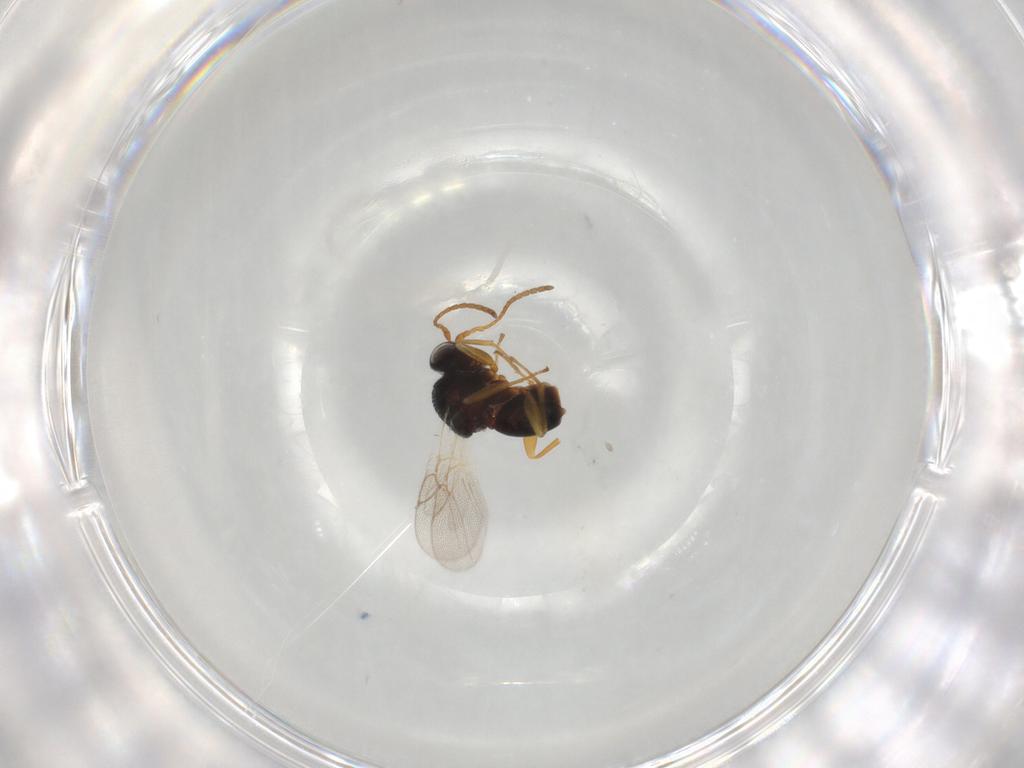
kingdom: Animalia
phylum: Arthropoda
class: Insecta
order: Hymenoptera
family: Cynipidae
